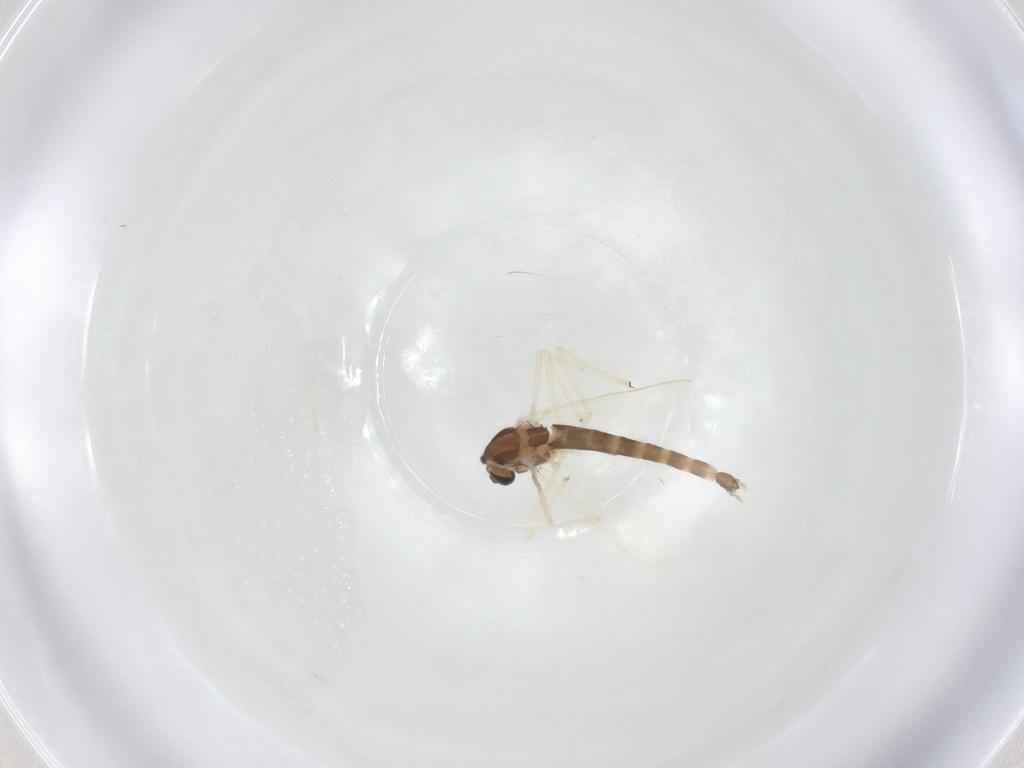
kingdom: Animalia
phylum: Arthropoda
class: Insecta
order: Diptera
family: Chironomidae
